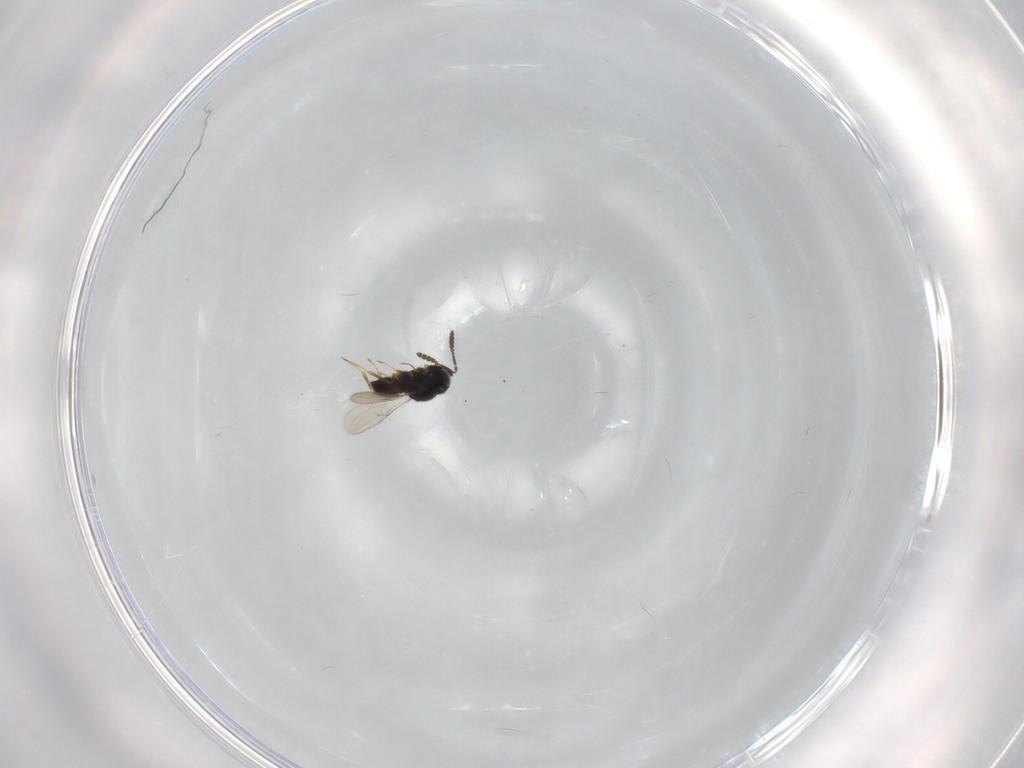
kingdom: Animalia
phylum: Arthropoda
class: Insecta
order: Hymenoptera
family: Scelionidae
